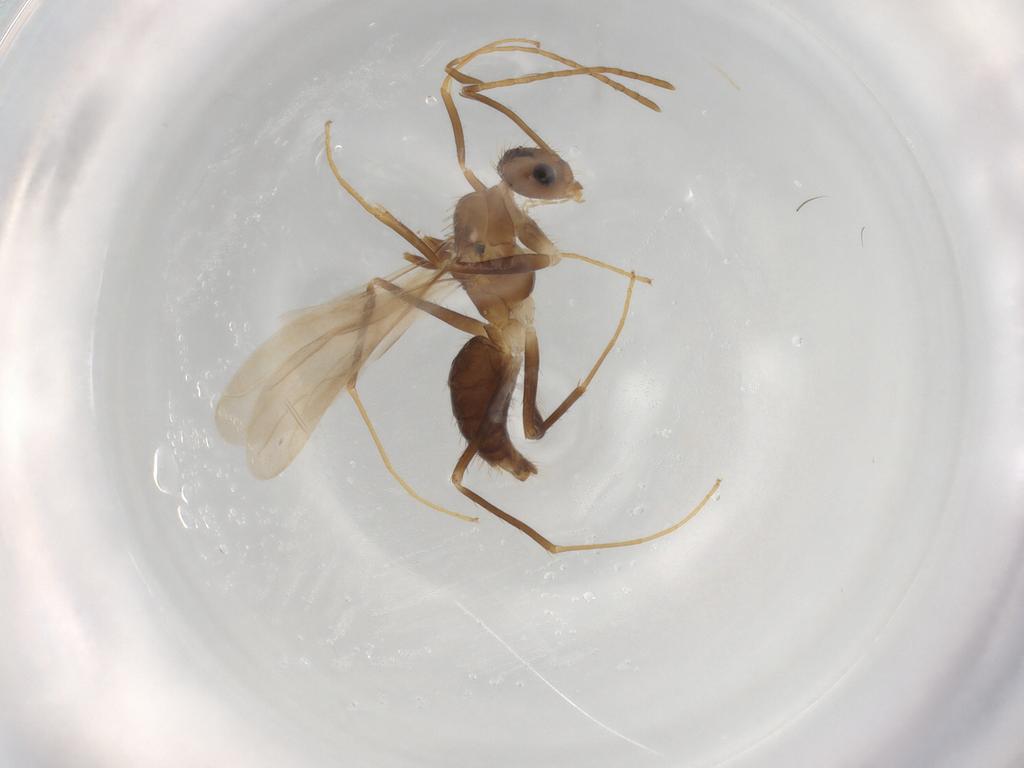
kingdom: Animalia
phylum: Arthropoda
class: Insecta
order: Hymenoptera
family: Formicidae
